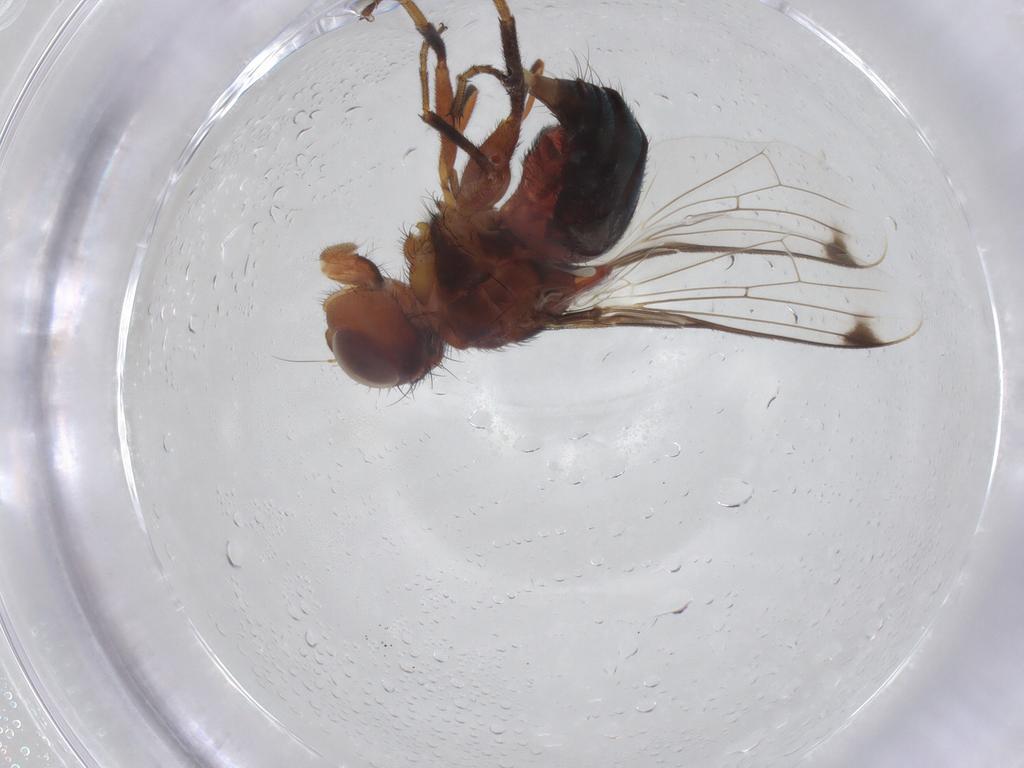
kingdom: Animalia
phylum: Arthropoda
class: Insecta
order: Diptera
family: Richardiidae
